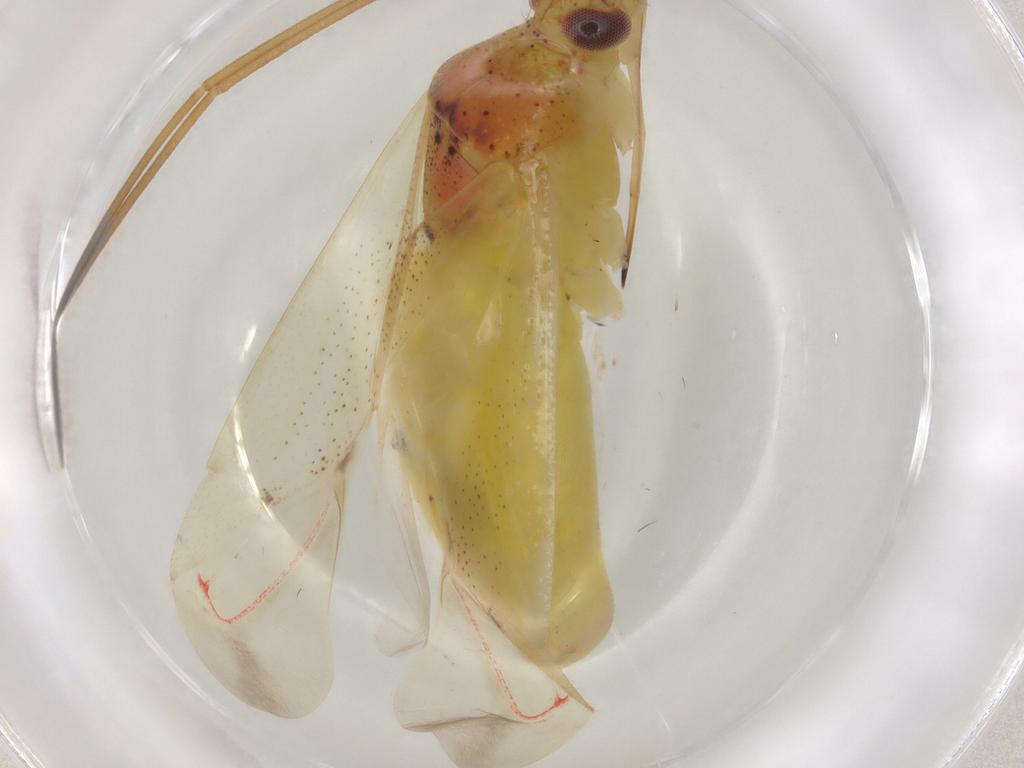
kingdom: Animalia
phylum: Arthropoda
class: Insecta
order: Hemiptera
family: Miridae
